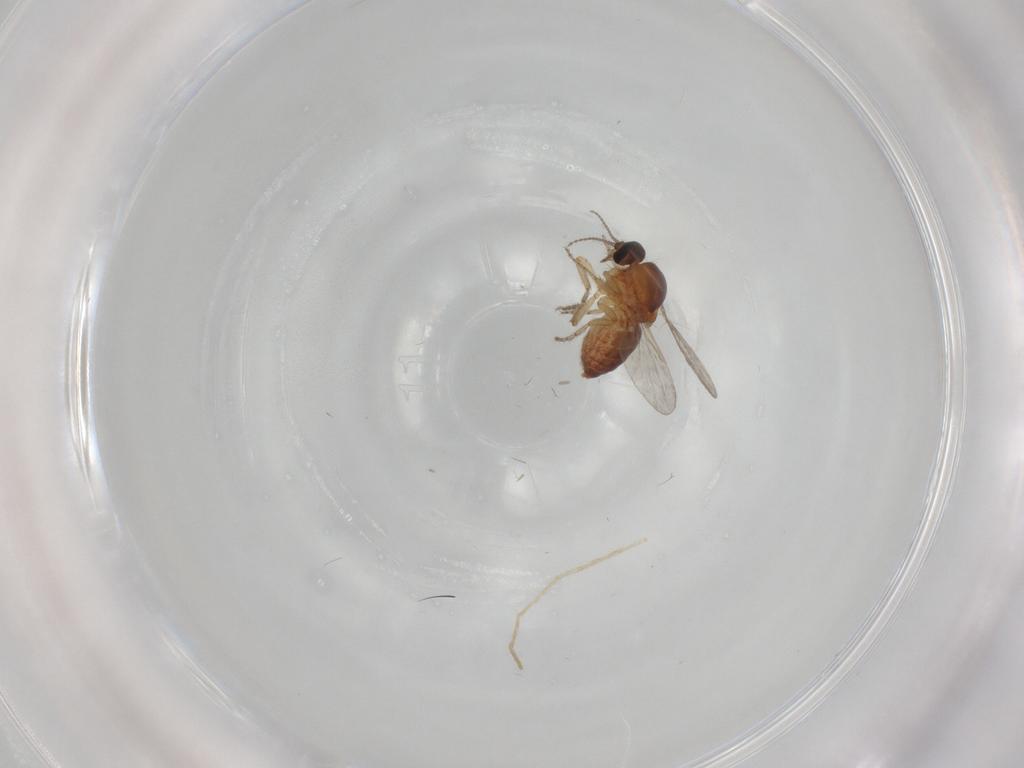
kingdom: Animalia
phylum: Arthropoda
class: Insecta
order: Diptera
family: Ceratopogonidae
